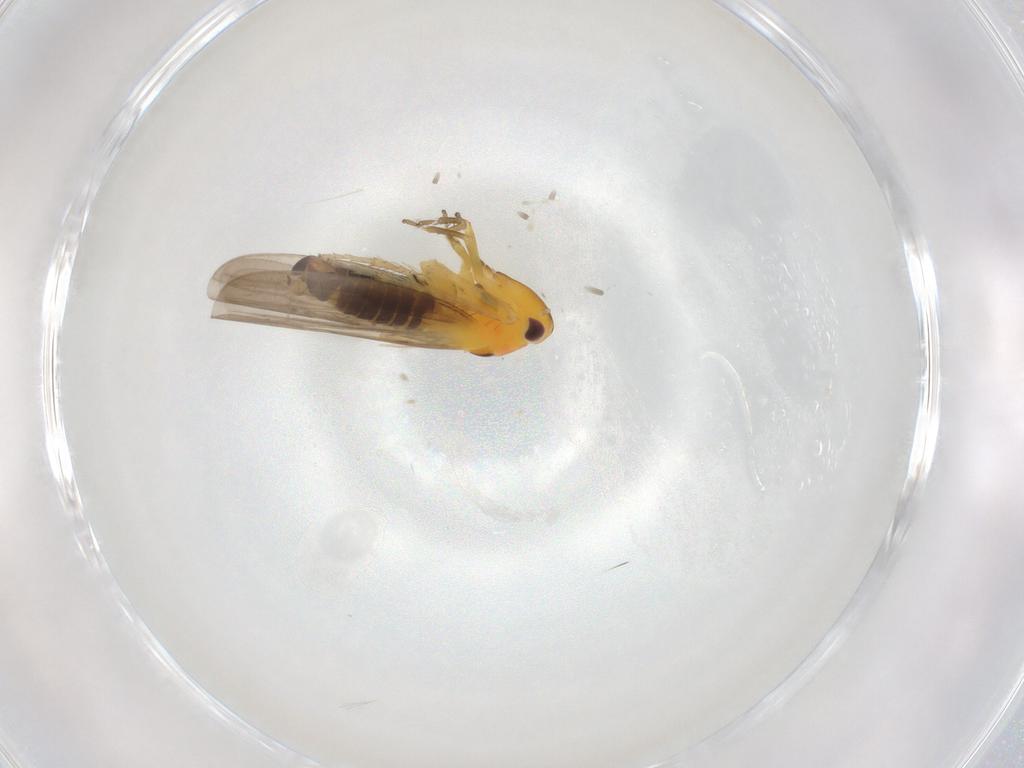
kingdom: Animalia
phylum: Arthropoda
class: Insecta
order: Hemiptera
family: Cicadellidae
